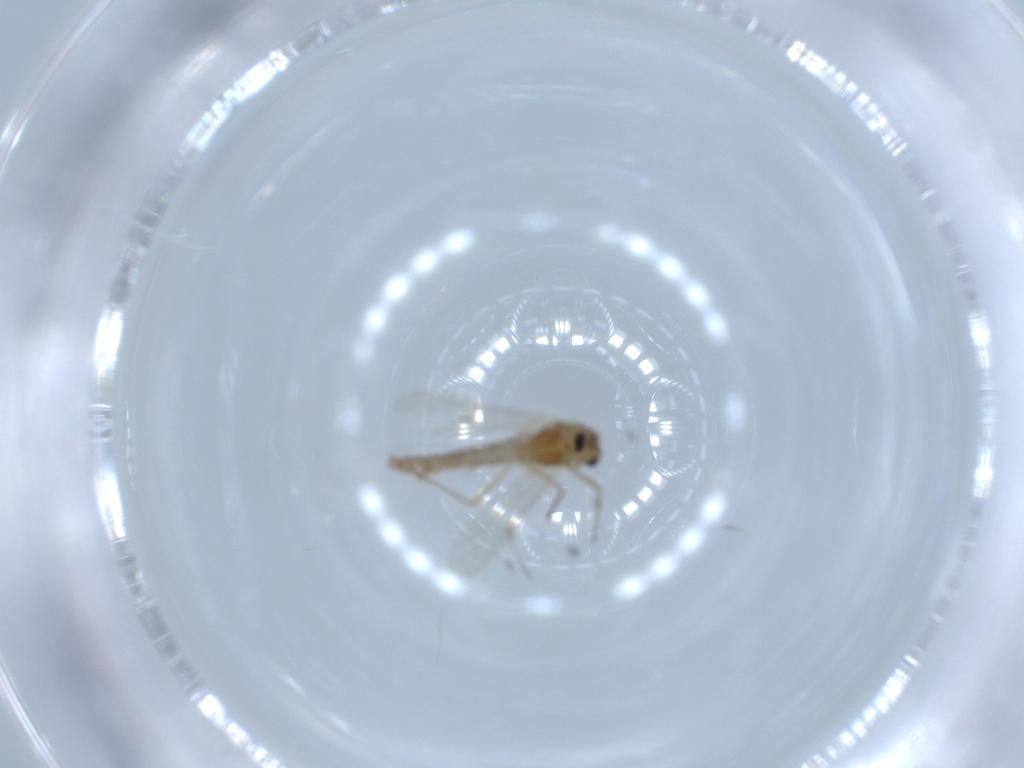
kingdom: Animalia
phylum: Arthropoda
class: Insecta
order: Diptera
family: Chironomidae
